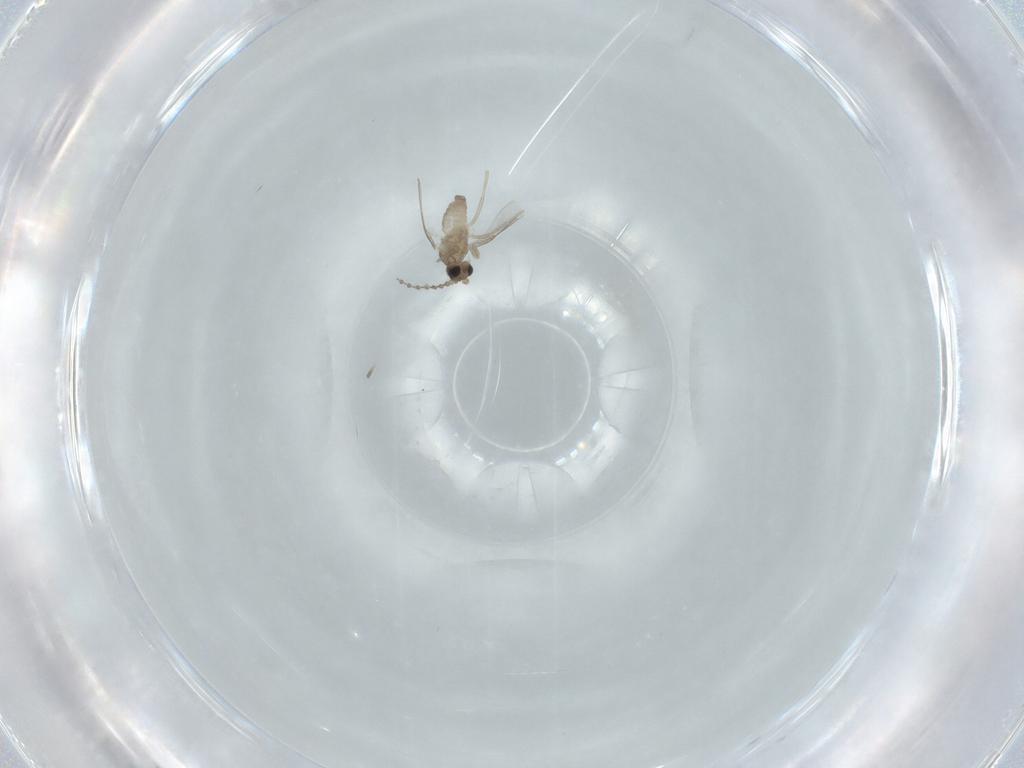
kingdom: Animalia
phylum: Arthropoda
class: Insecta
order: Diptera
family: Cecidomyiidae
